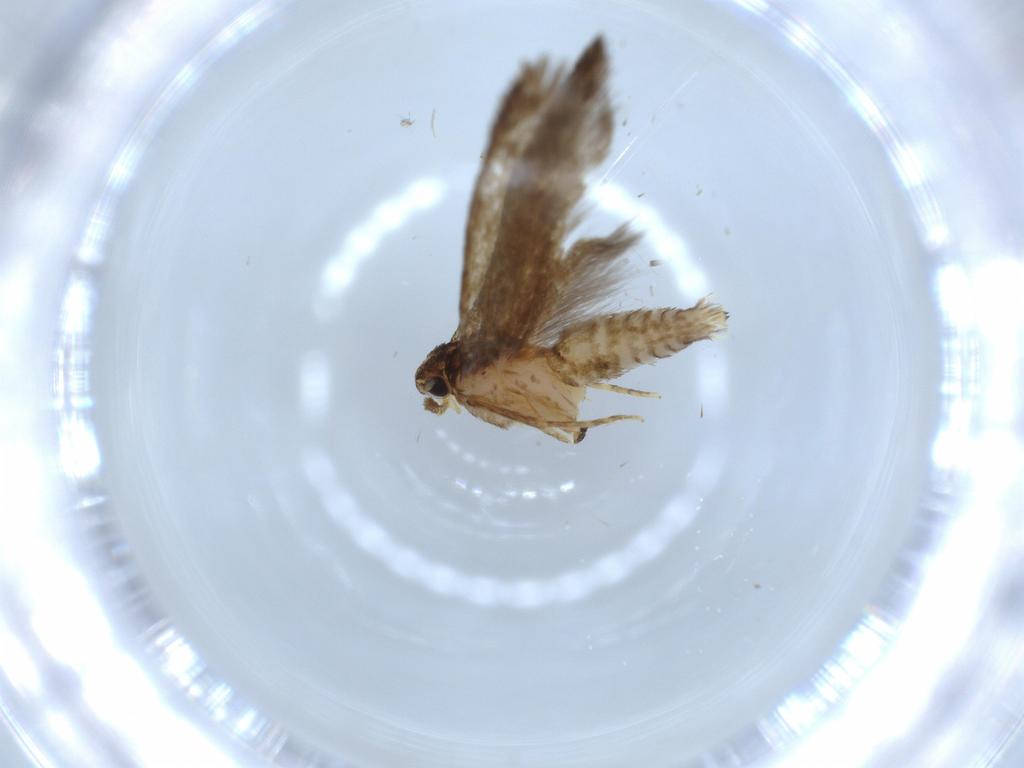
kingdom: Animalia
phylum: Arthropoda
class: Insecta
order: Lepidoptera
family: Tineidae
